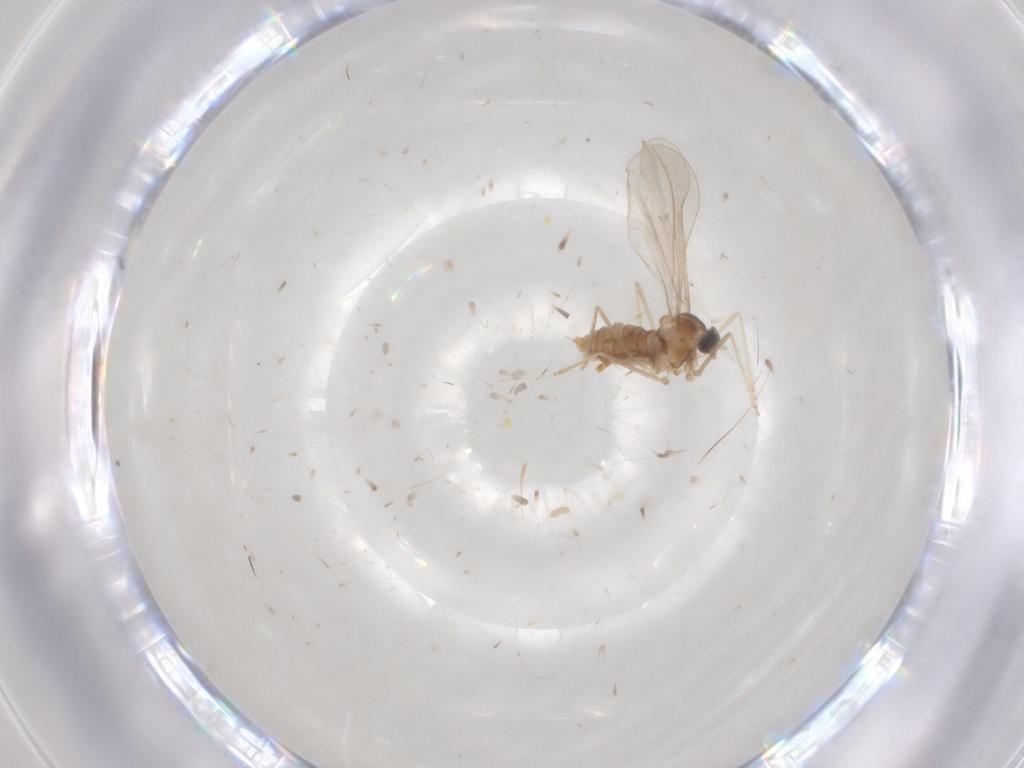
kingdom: Animalia
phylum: Arthropoda
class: Insecta
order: Diptera
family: Cecidomyiidae
